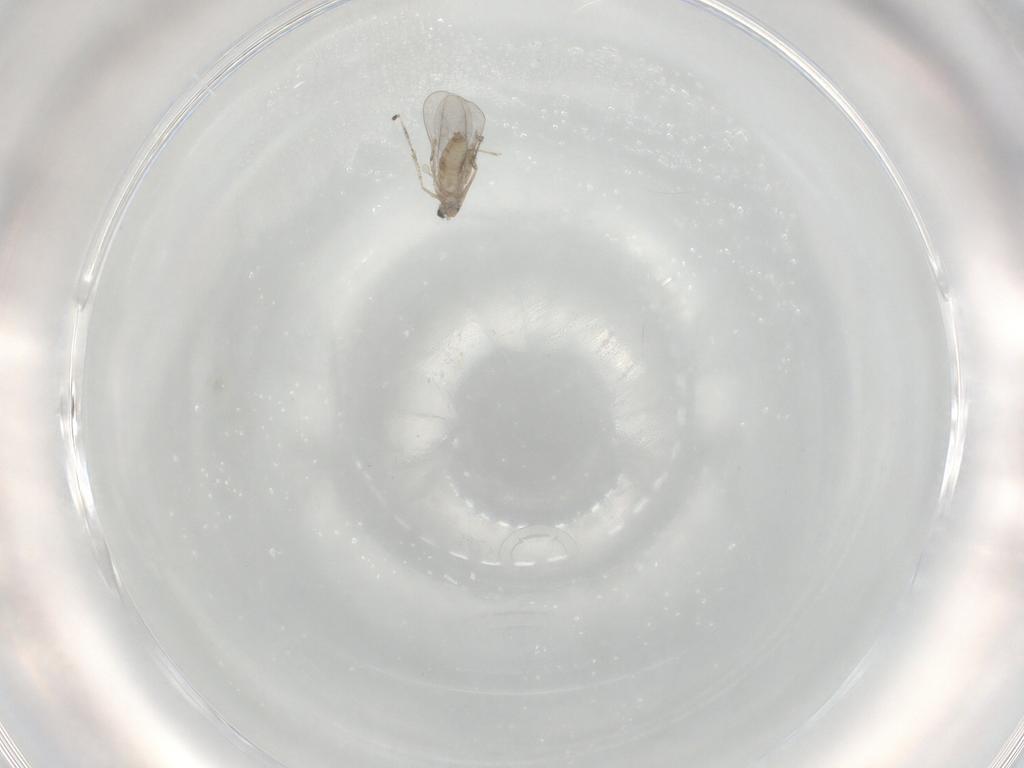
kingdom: Animalia
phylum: Arthropoda
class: Insecta
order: Diptera
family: Cecidomyiidae
